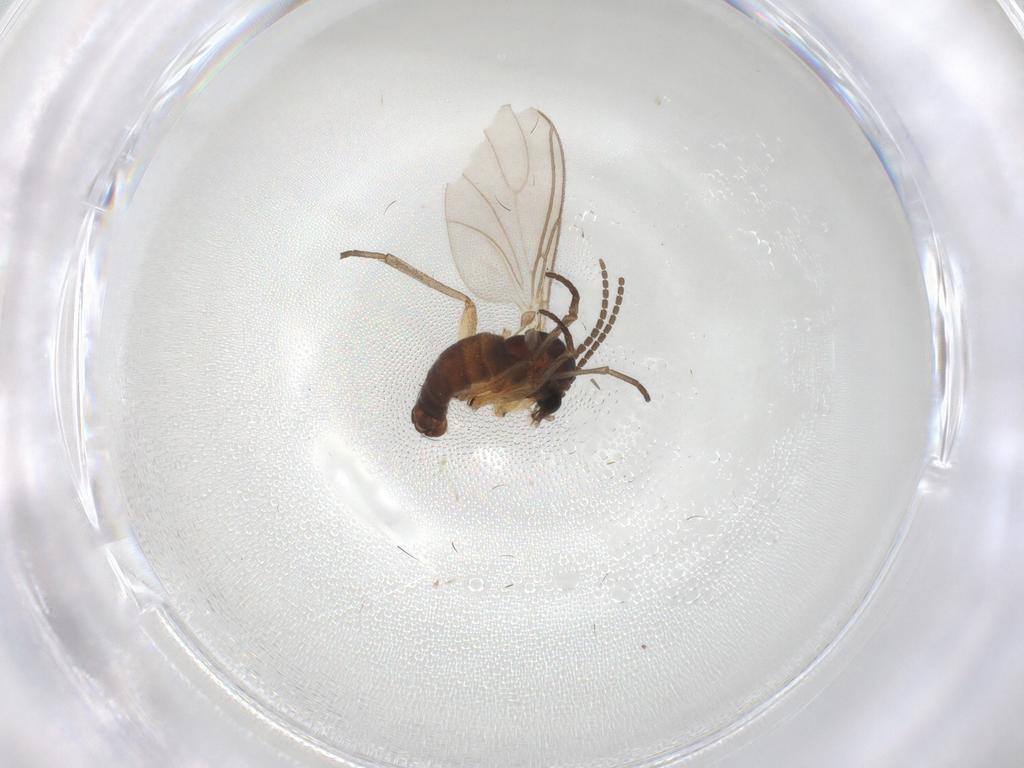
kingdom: Animalia
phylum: Arthropoda
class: Insecta
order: Diptera
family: Sciaridae
